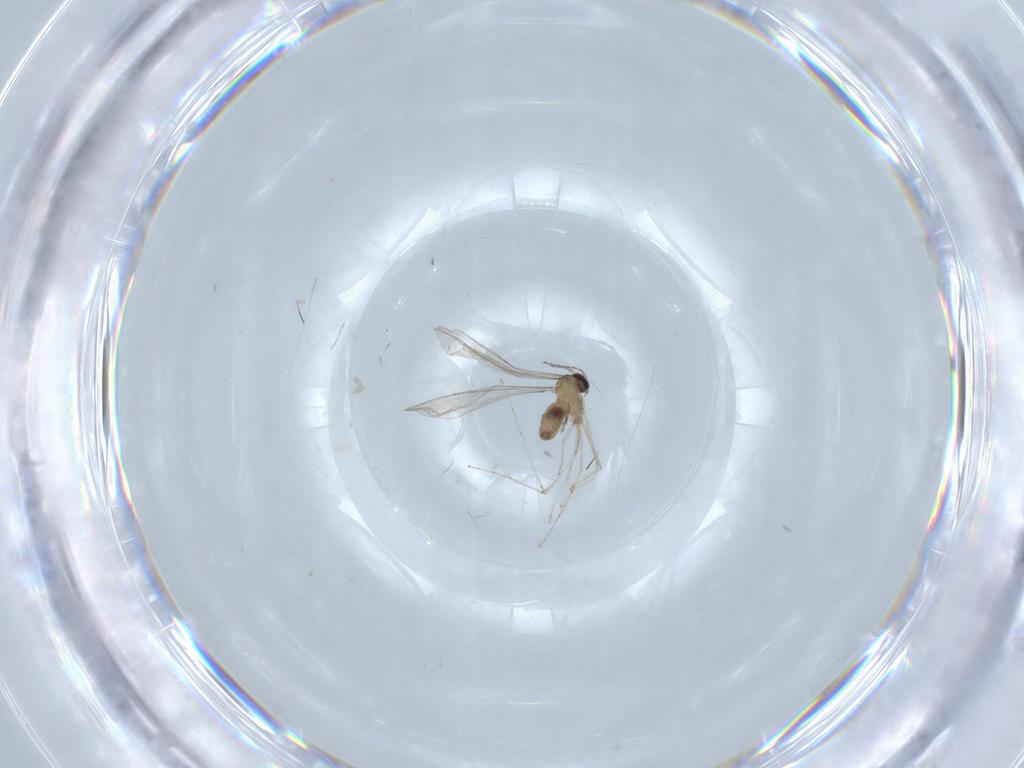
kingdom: Animalia
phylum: Arthropoda
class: Insecta
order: Diptera
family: Cecidomyiidae
